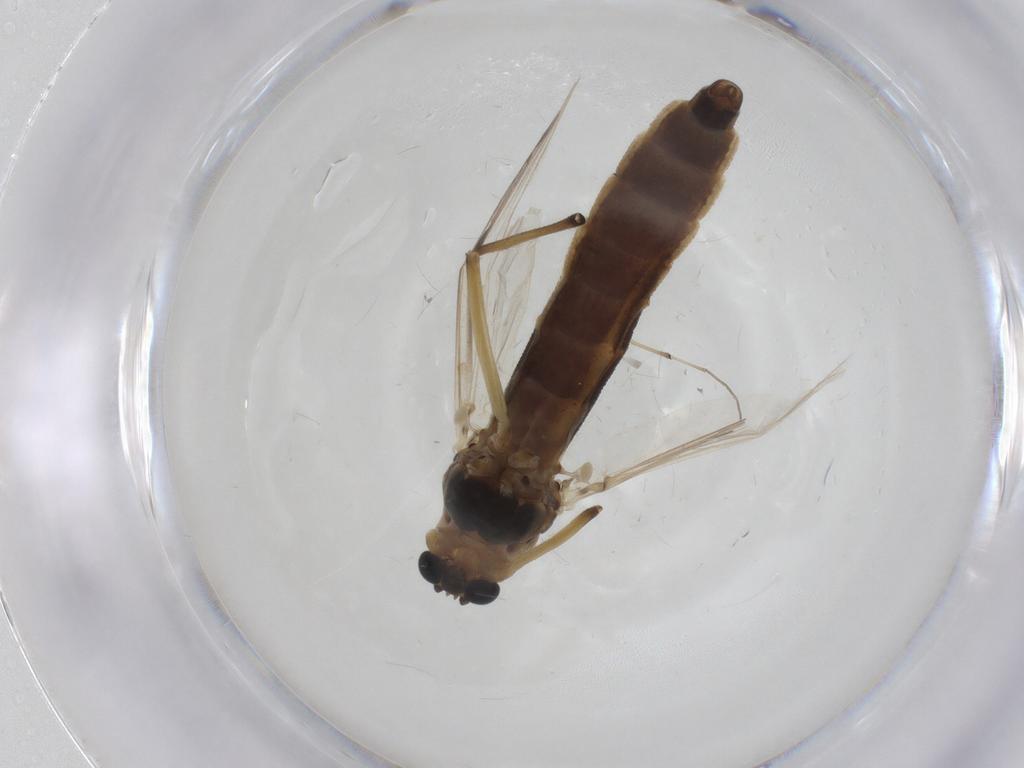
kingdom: Animalia
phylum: Arthropoda
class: Insecta
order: Diptera
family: Chironomidae
